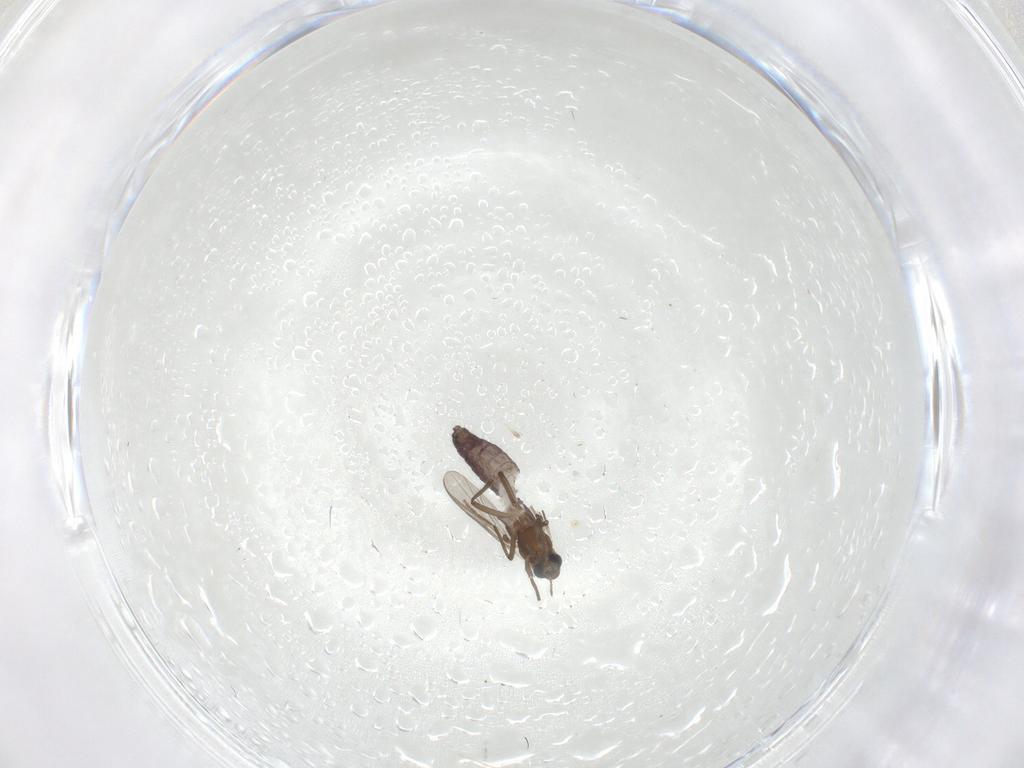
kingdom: Animalia
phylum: Arthropoda
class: Insecta
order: Diptera
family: Chironomidae
